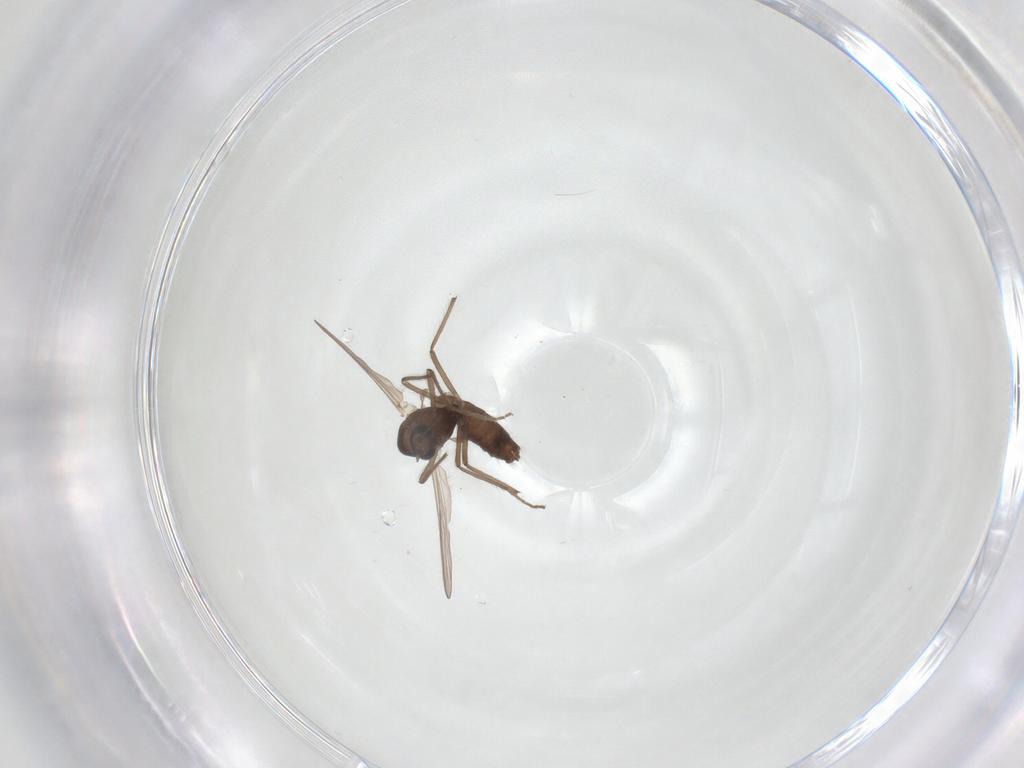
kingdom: Animalia
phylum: Arthropoda
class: Insecta
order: Diptera
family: Chironomidae
